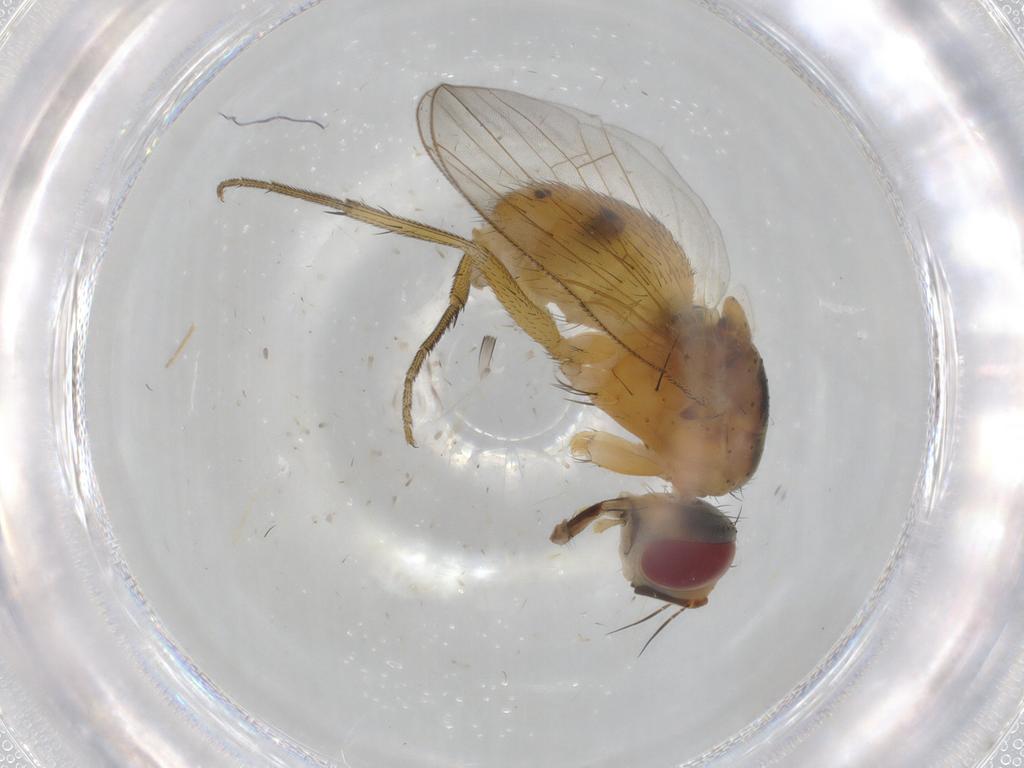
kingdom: Animalia
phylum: Arthropoda
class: Insecta
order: Diptera
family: Muscidae
